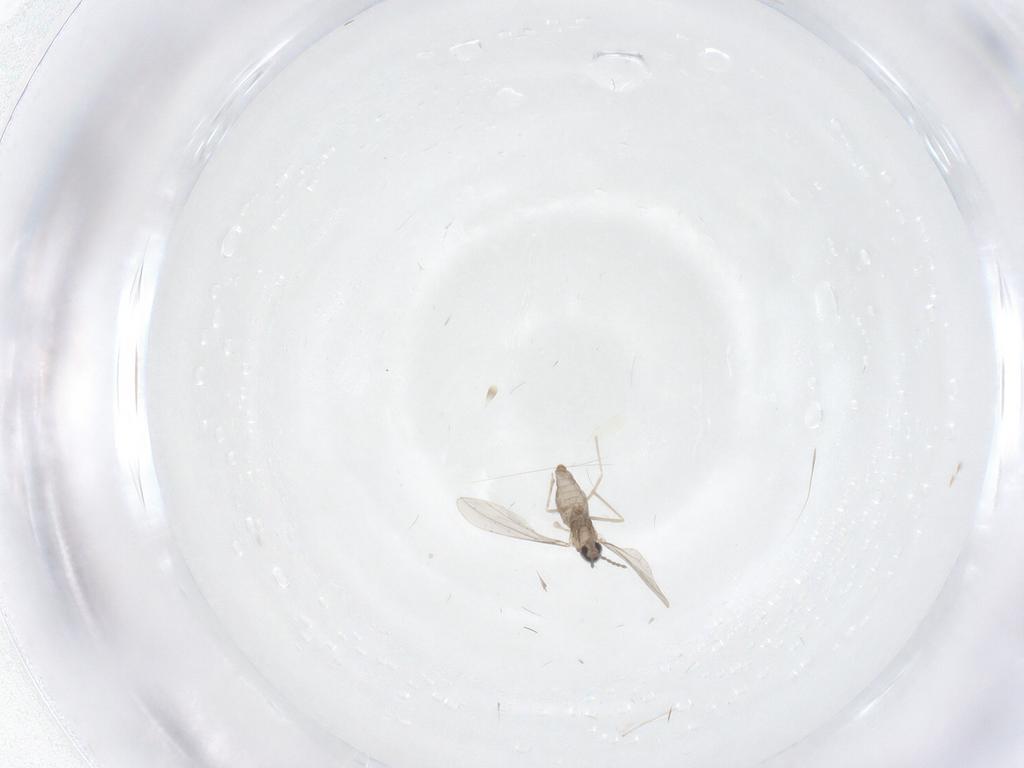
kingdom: Animalia
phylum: Arthropoda
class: Insecta
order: Diptera
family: Cecidomyiidae
